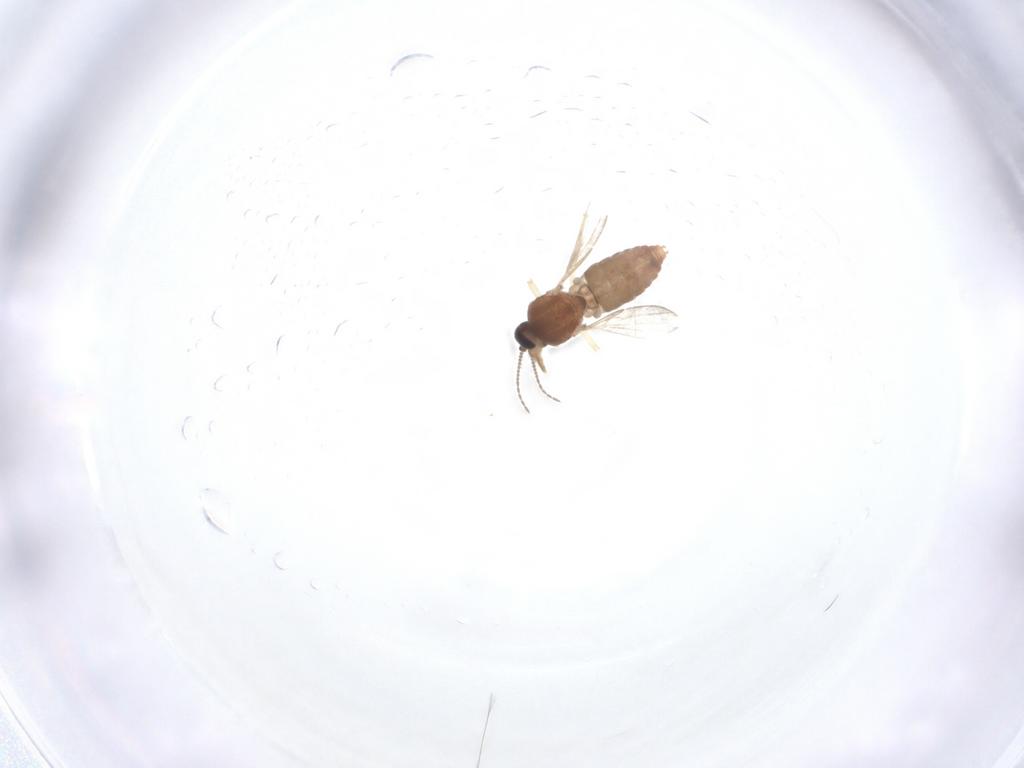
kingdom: Animalia
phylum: Arthropoda
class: Insecta
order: Diptera
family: Ceratopogonidae
